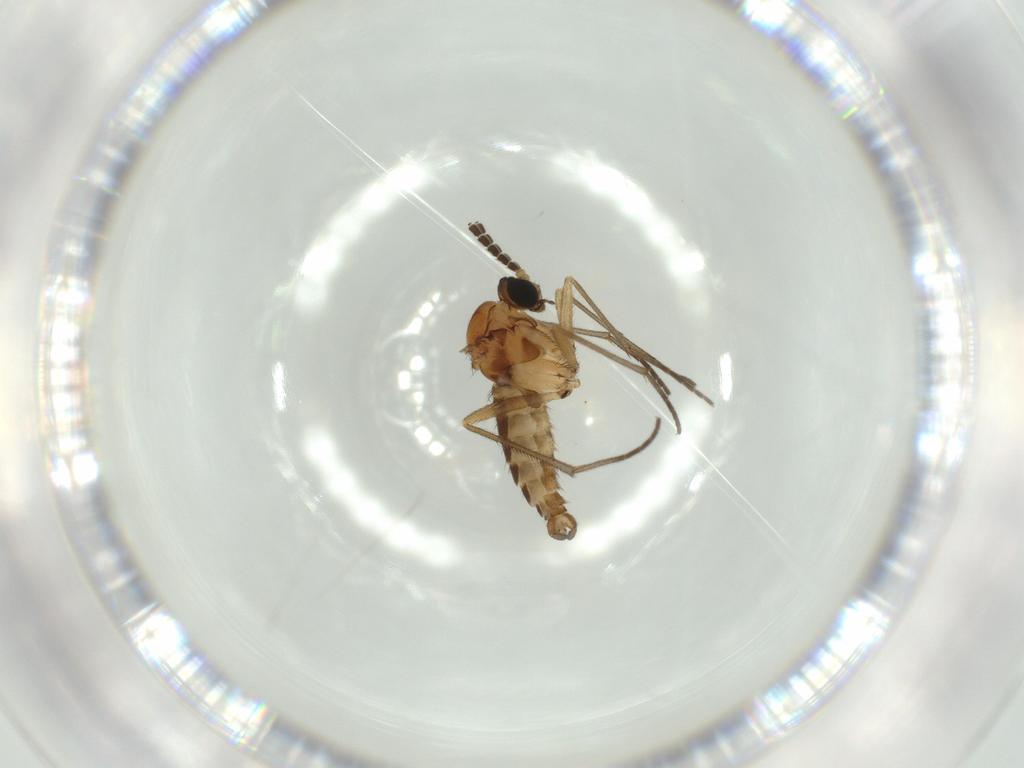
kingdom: Animalia
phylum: Arthropoda
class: Insecta
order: Diptera
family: Sciaridae
